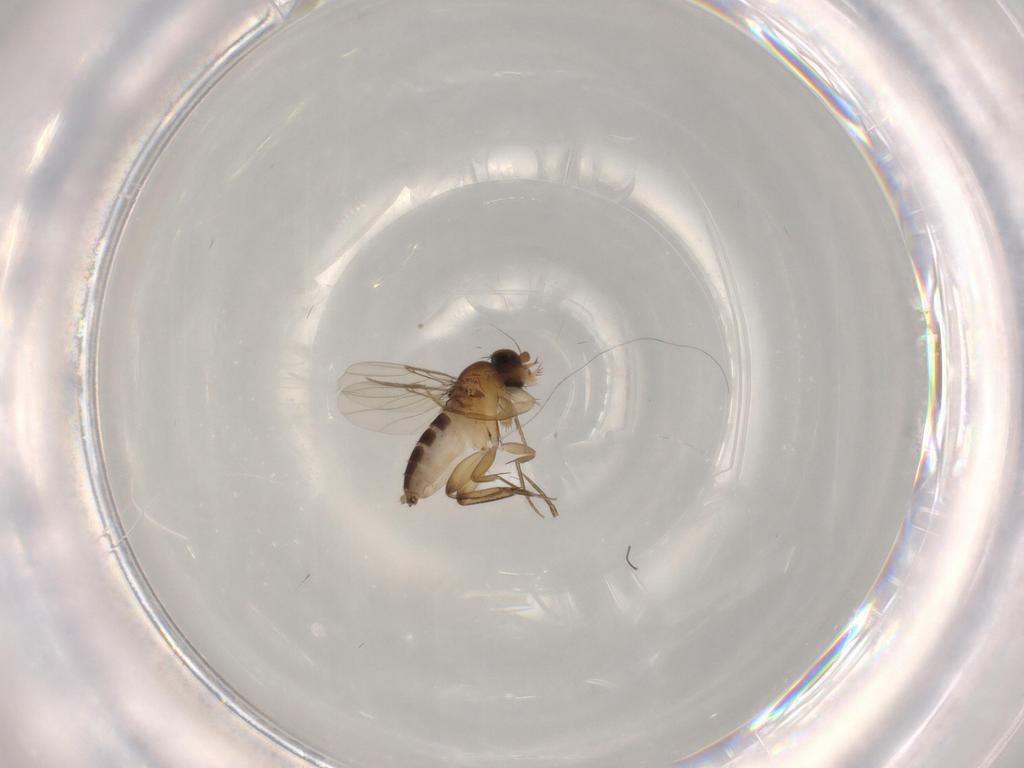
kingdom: Animalia
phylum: Arthropoda
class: Insecta
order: Diptera
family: Phoridae
